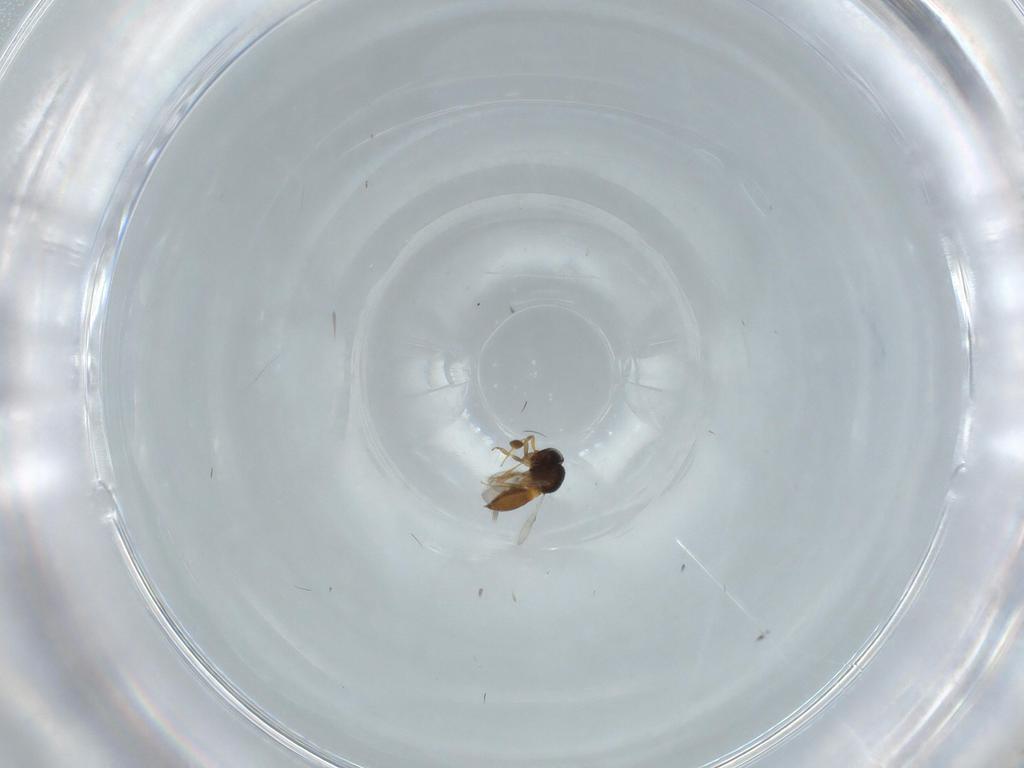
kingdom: Animalia
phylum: Arthropoda
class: Insecta
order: Hymenoptera
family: Scelionidae
